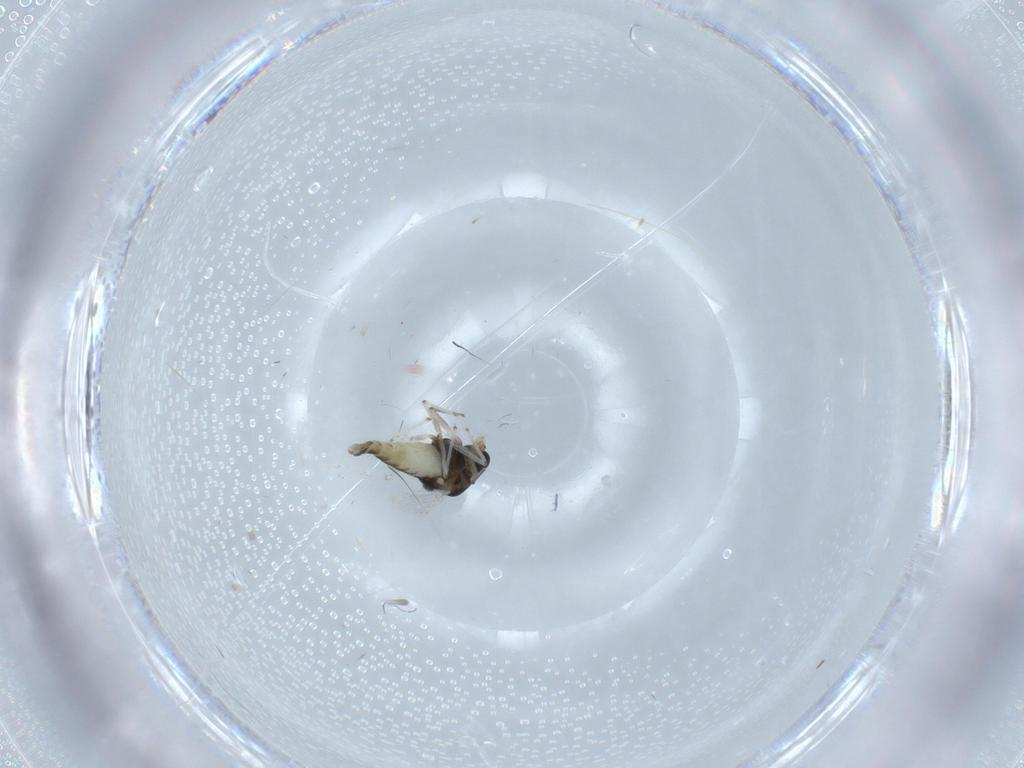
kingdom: Animalia
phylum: Arthropoda
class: Insecta
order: Diptera
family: Chironomidae
